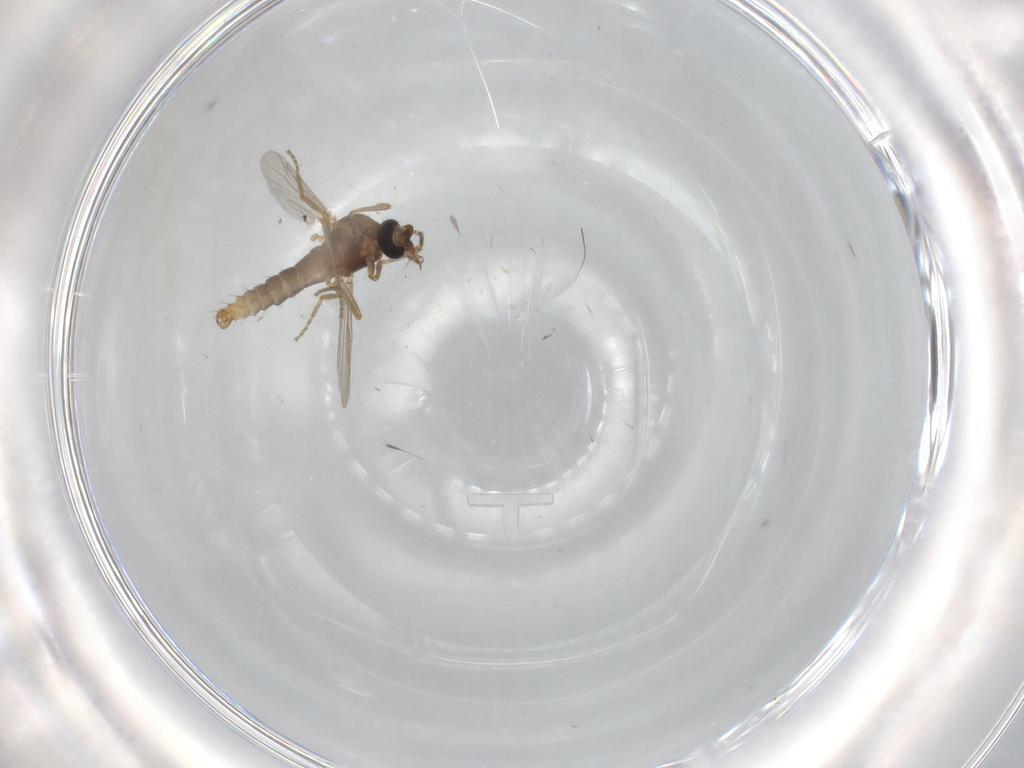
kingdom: Animalia
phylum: Arthropoda
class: Insecta
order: Diptera
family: Ceratopogonidae
